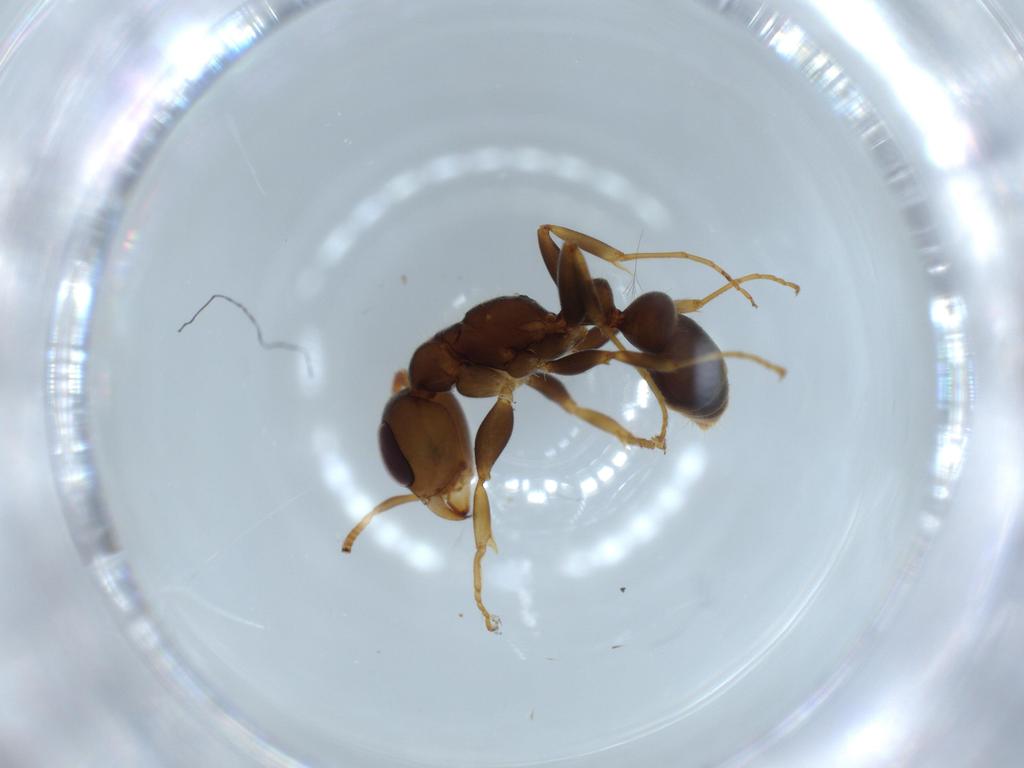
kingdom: Animalia
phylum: Arthropoda
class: Insecta
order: Hymenoptera
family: Formicidae
